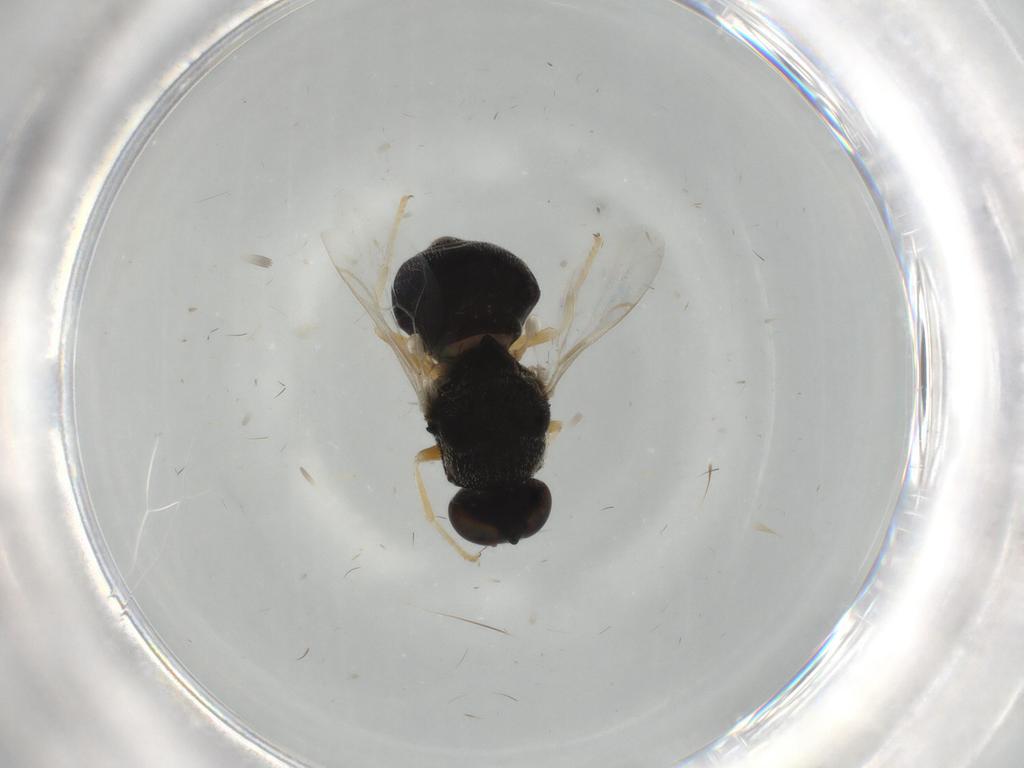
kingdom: Animalia
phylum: Arthropoda
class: Insecta
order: Diptera
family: Stratiomyidae
